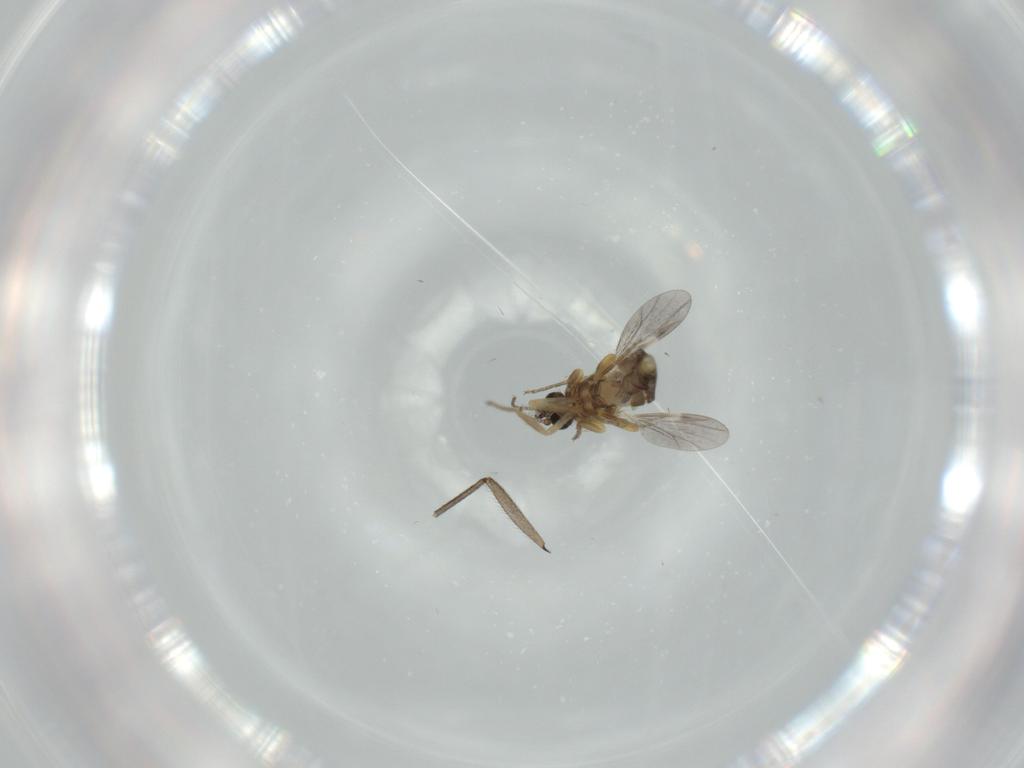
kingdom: Animalia
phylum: Arthropoda
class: Insecta
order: Diptera
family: Sciaridae
